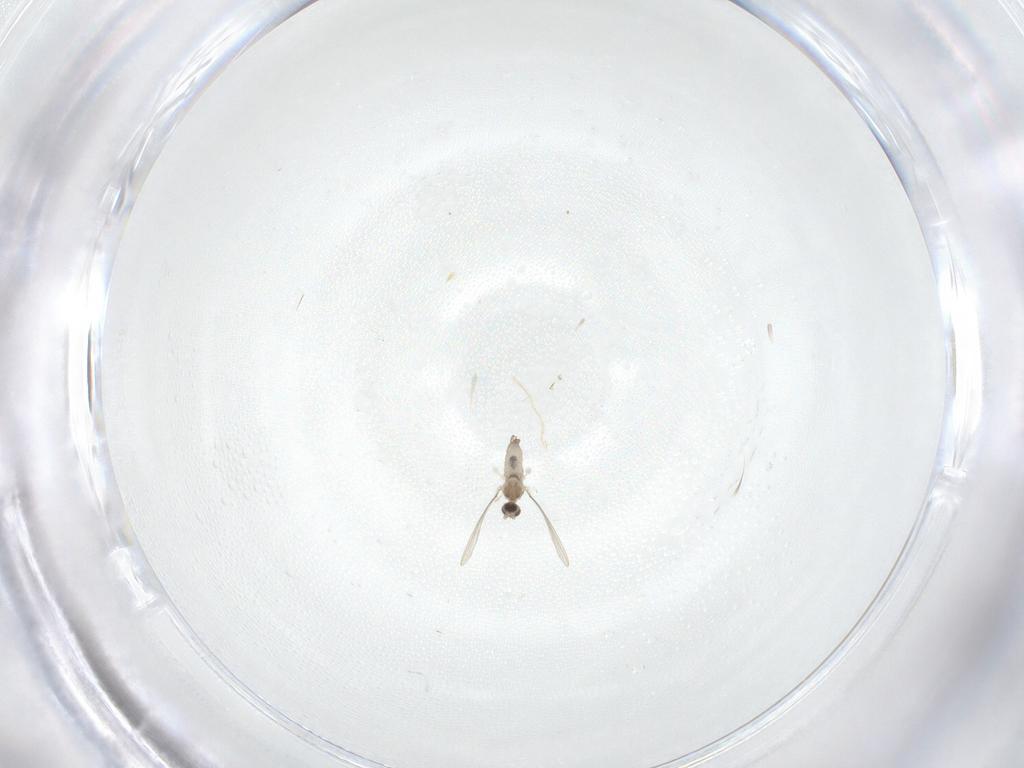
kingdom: Animalia
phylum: Arthropoda
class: Insecta
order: Diptera
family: Cecidomyiidae
